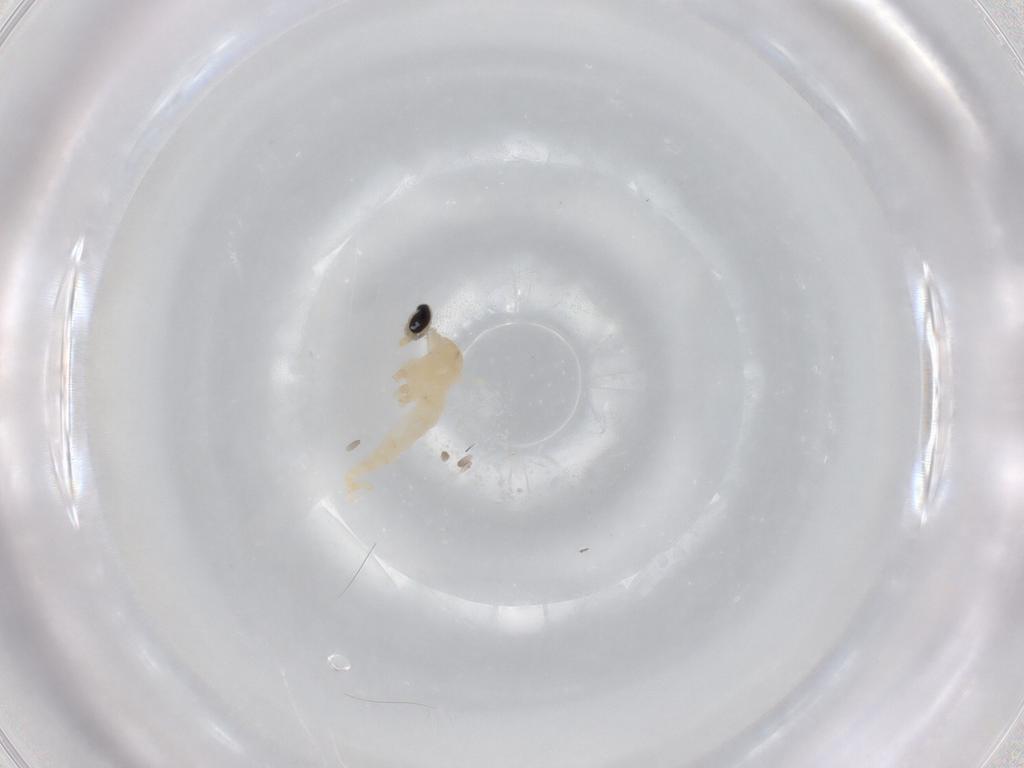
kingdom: Animalia
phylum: Arthropoda
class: Insecta
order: Diptera
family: Cecidomyiidae
